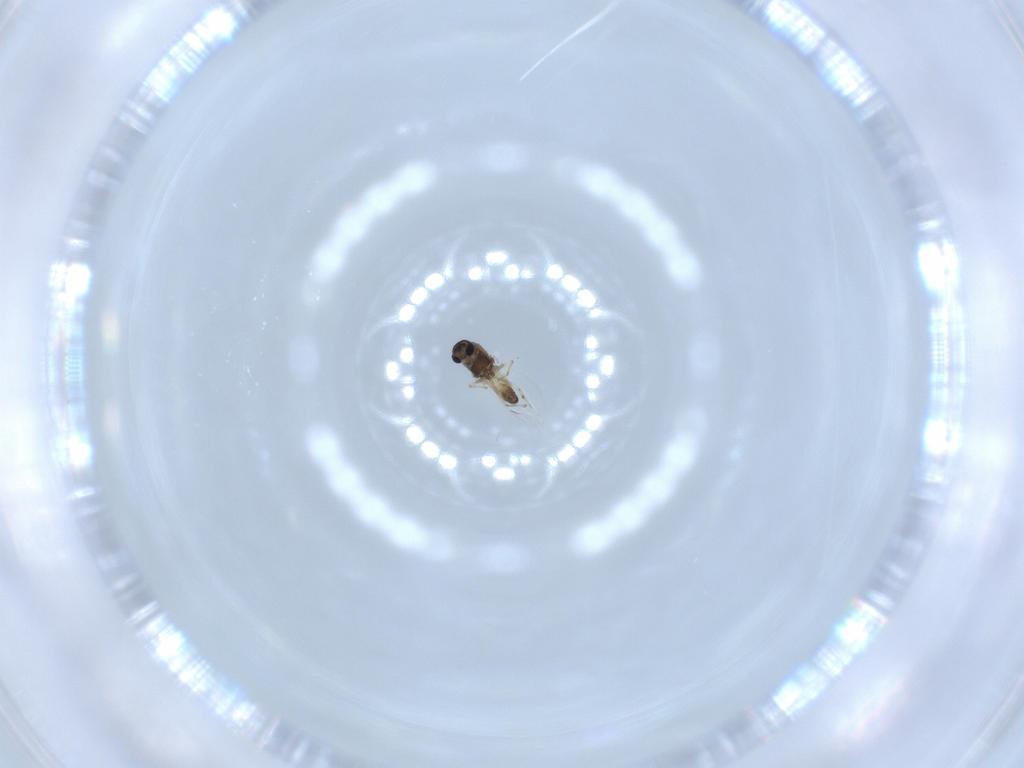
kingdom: Animalia
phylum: Arthropoda
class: Insecta
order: Diptera
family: Chironomidae
